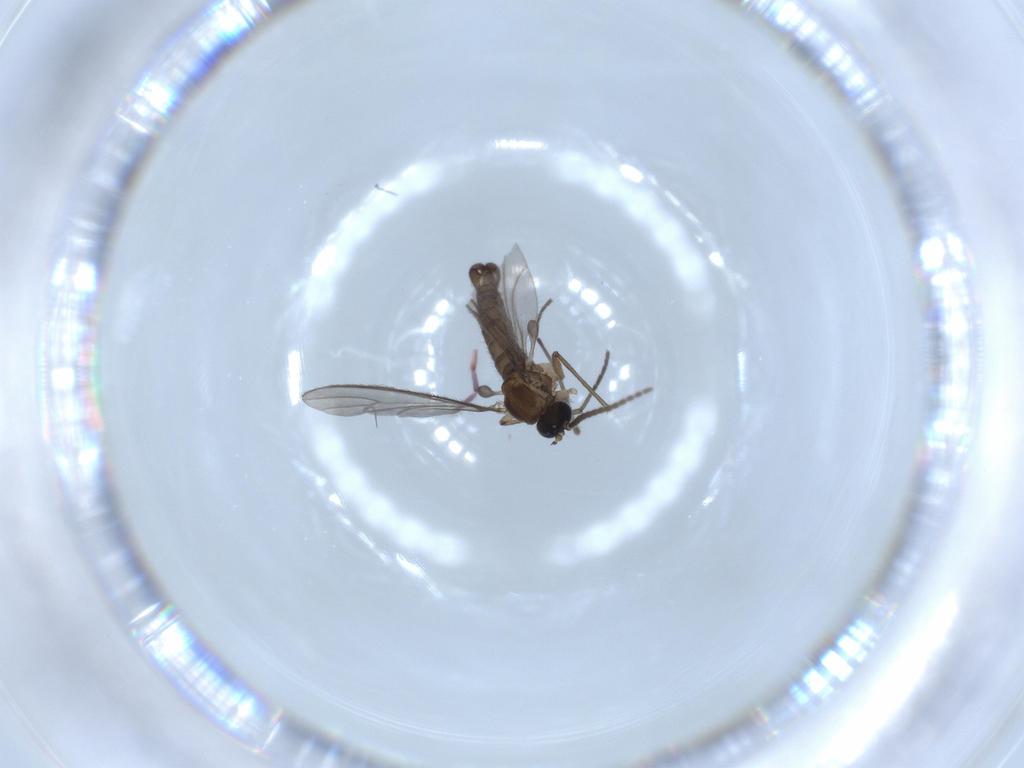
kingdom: Animalia
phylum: Arthropoda
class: Insecta
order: Diptera
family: Sciaridae
